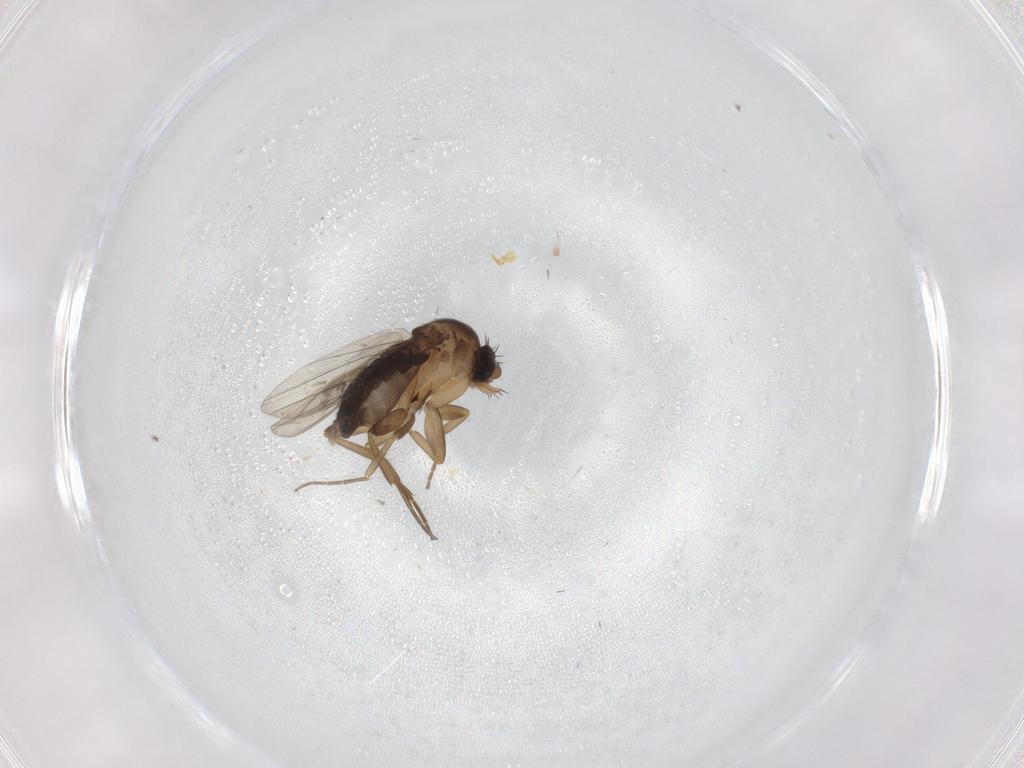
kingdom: Animalia
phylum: Arthropoda
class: Insecta
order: Diptera
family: Phoridae
